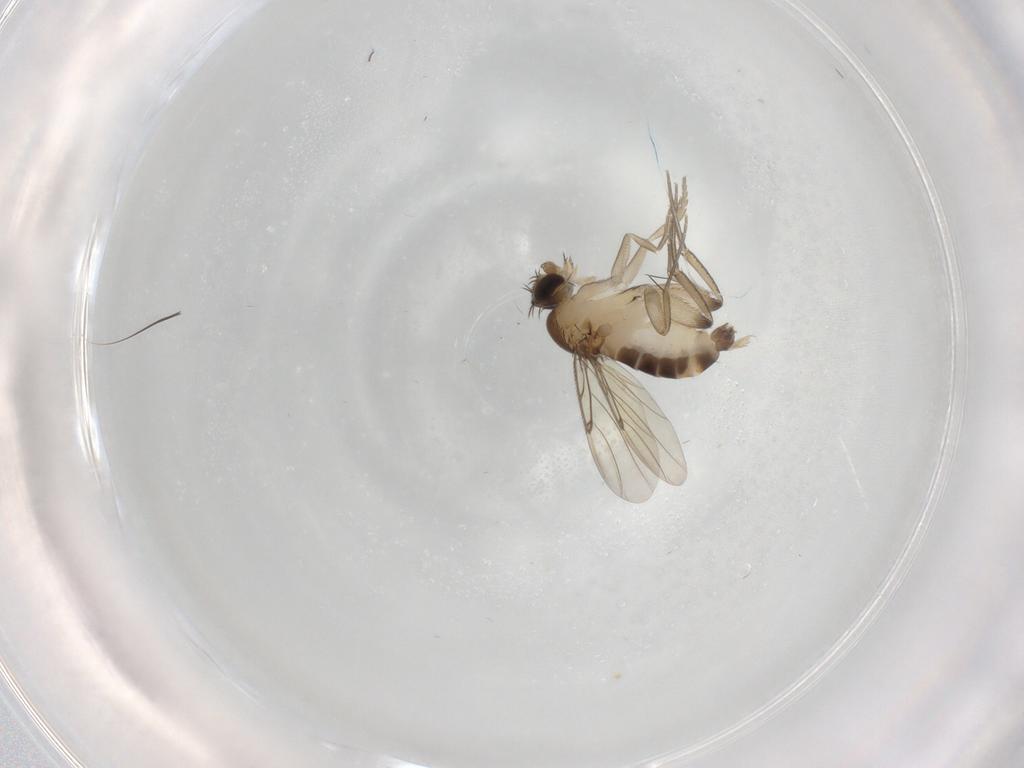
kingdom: Animalia
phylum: Arthropoda
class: Insecta
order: Diptera
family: Phoridae
